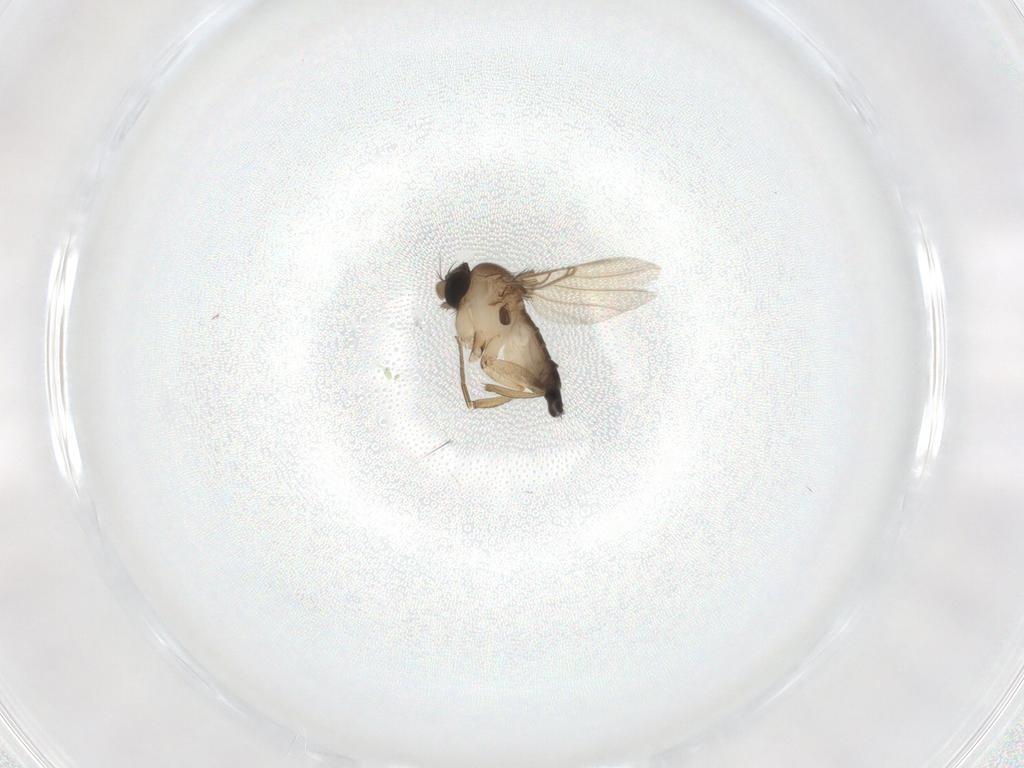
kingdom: Animalia
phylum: Arthropoda
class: Insecta
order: Diptera
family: Phoridae
